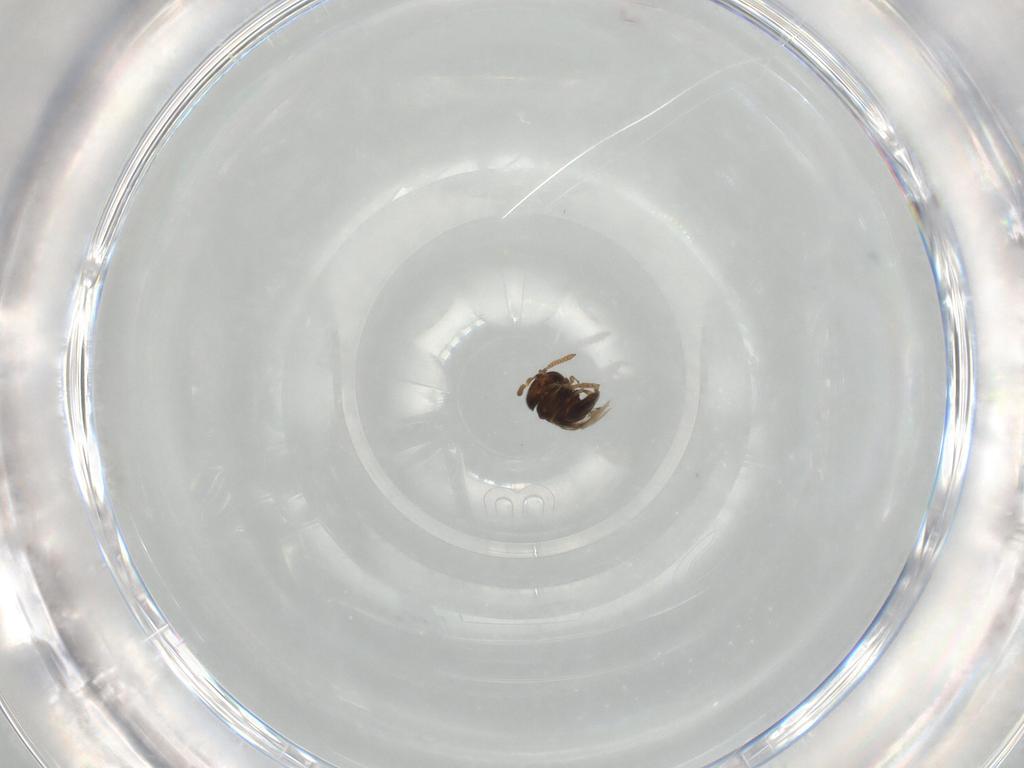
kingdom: Animalia
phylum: Arthropoda
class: Insecta
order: Hymenoptera
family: Scelionidae
